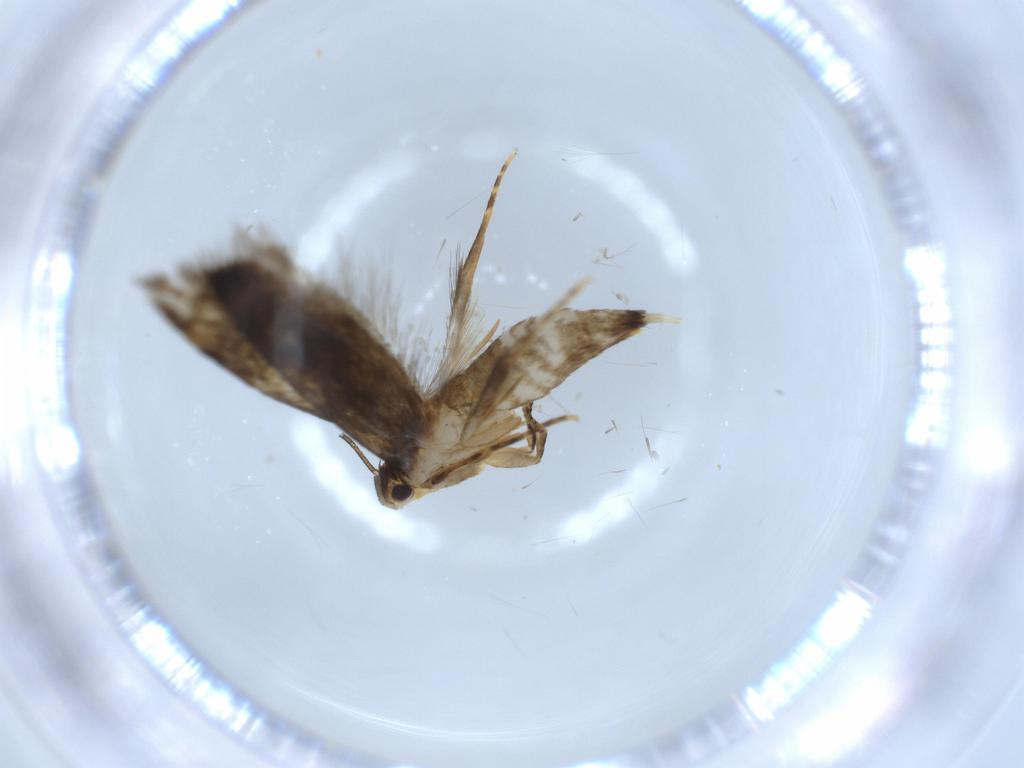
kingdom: Animalia
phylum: Arthropoda
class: Insecta
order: Lepidoptera
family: Tineidae
